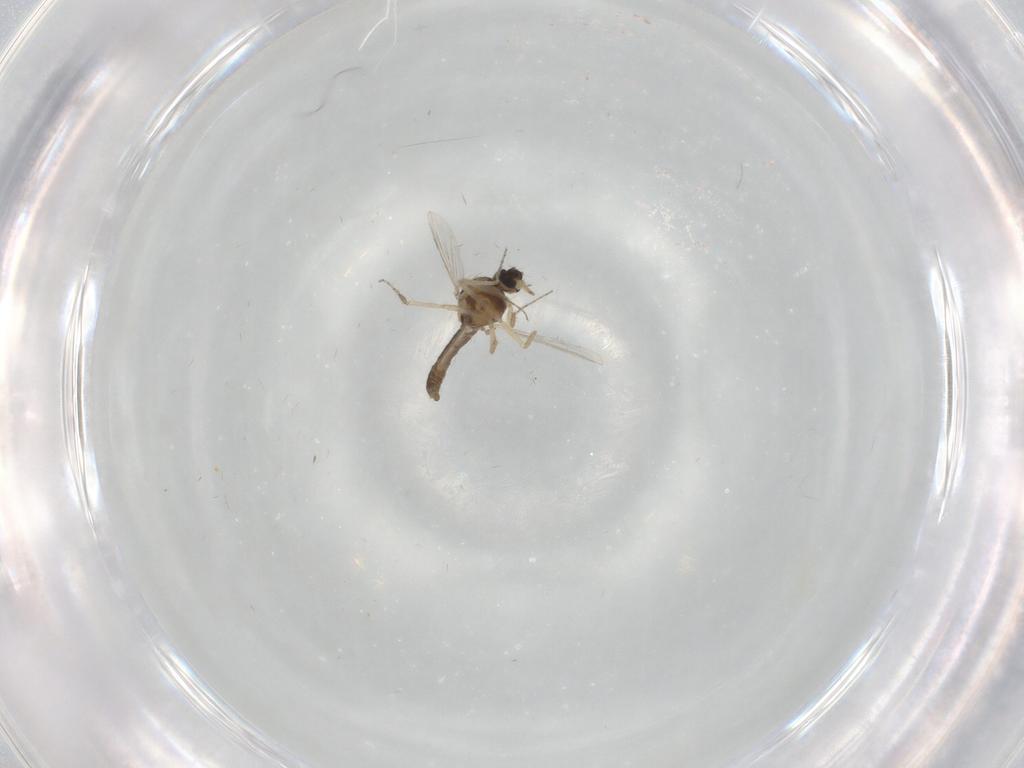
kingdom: Animalia
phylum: Arthropoda
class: Insecta
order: Diptera
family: Ceratopogonidae
